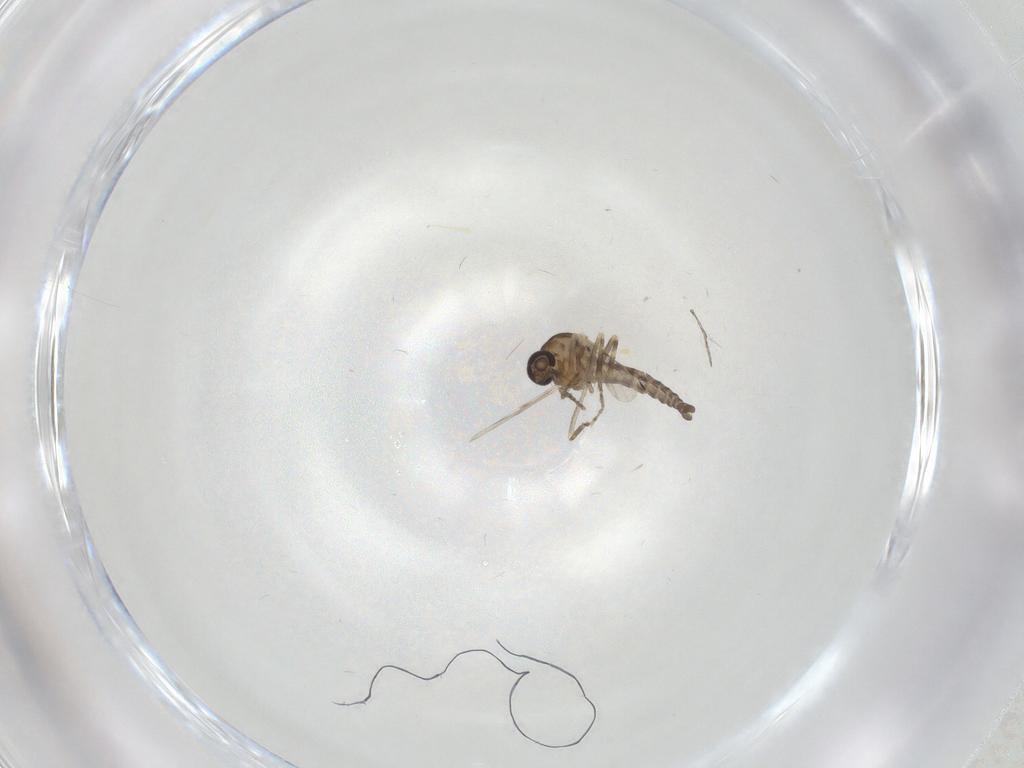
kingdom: Animalia
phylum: Arthropoda
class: Insecta
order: Diptera
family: Ceratopogonidae
